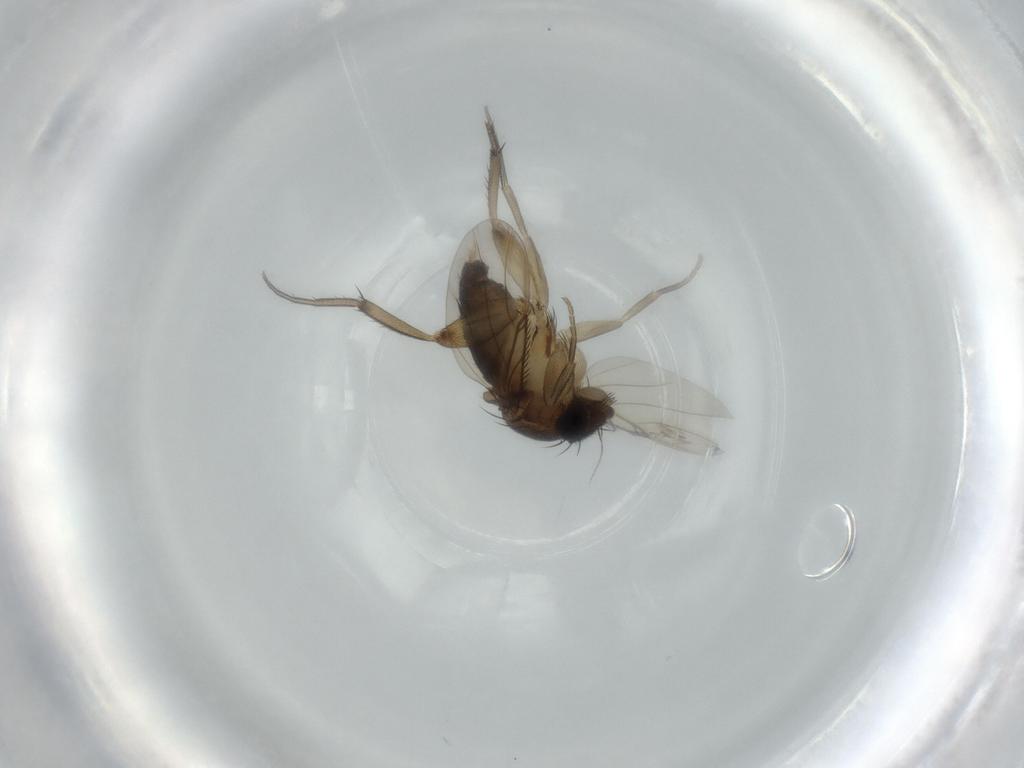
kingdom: Animalia
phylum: Arthropoda
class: Insecta
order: Diptera
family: Phoridae
